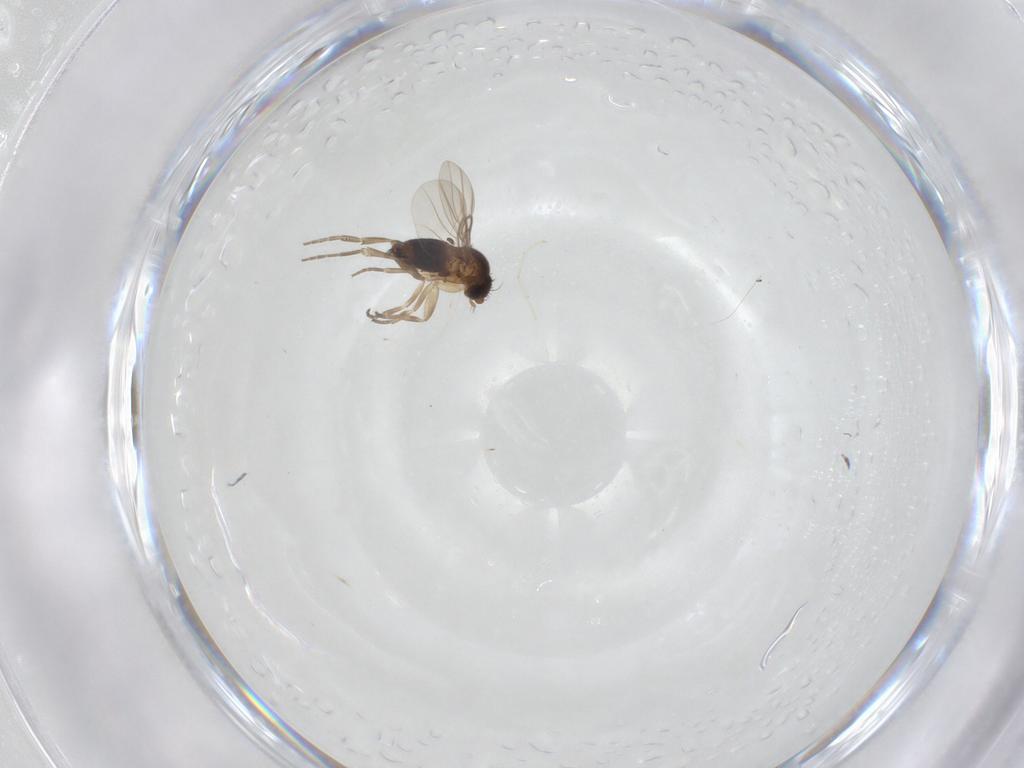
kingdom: Animalia
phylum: Arthropoda
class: Insecta
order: Diptera
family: Phoridae
